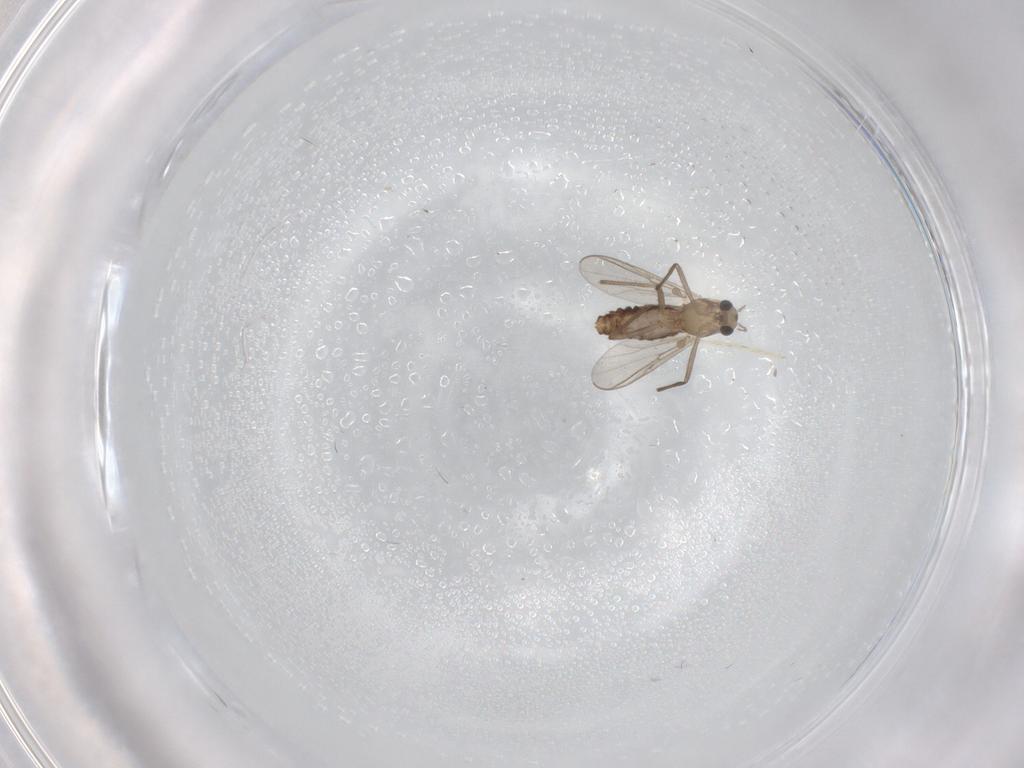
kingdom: Animalia
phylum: Arthropoda
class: Insecta
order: Diptera
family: Chironomidae
